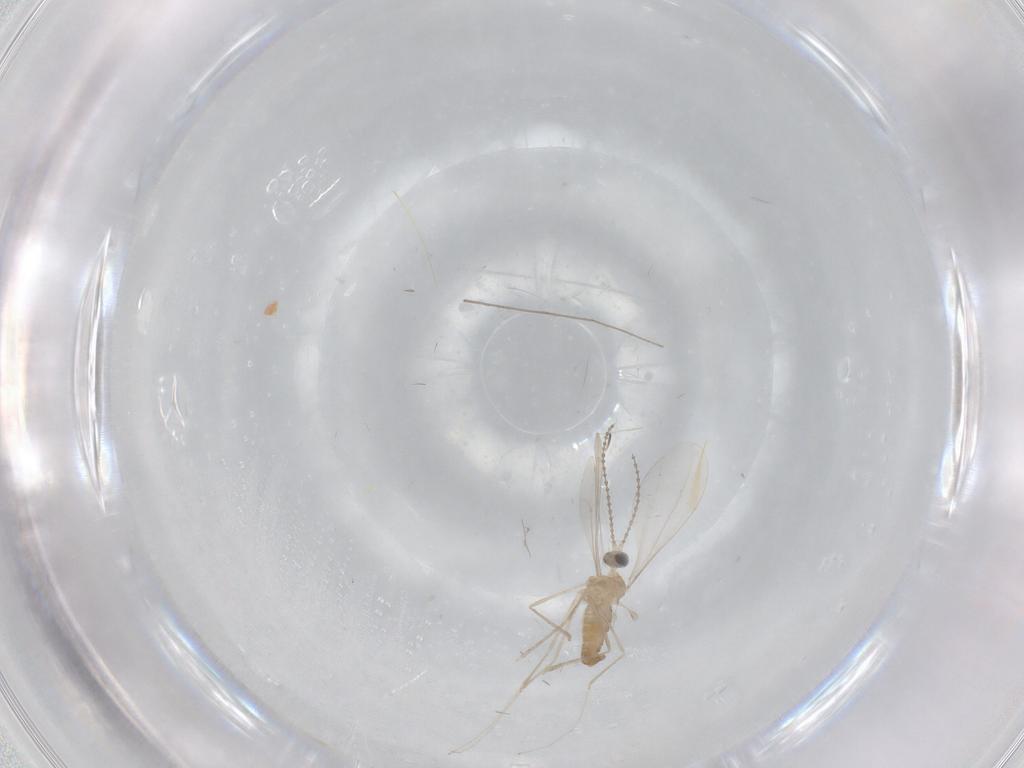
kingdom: Animalia
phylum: Arthropoda
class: Insecta
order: Diptera
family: Cecidomyiidae
